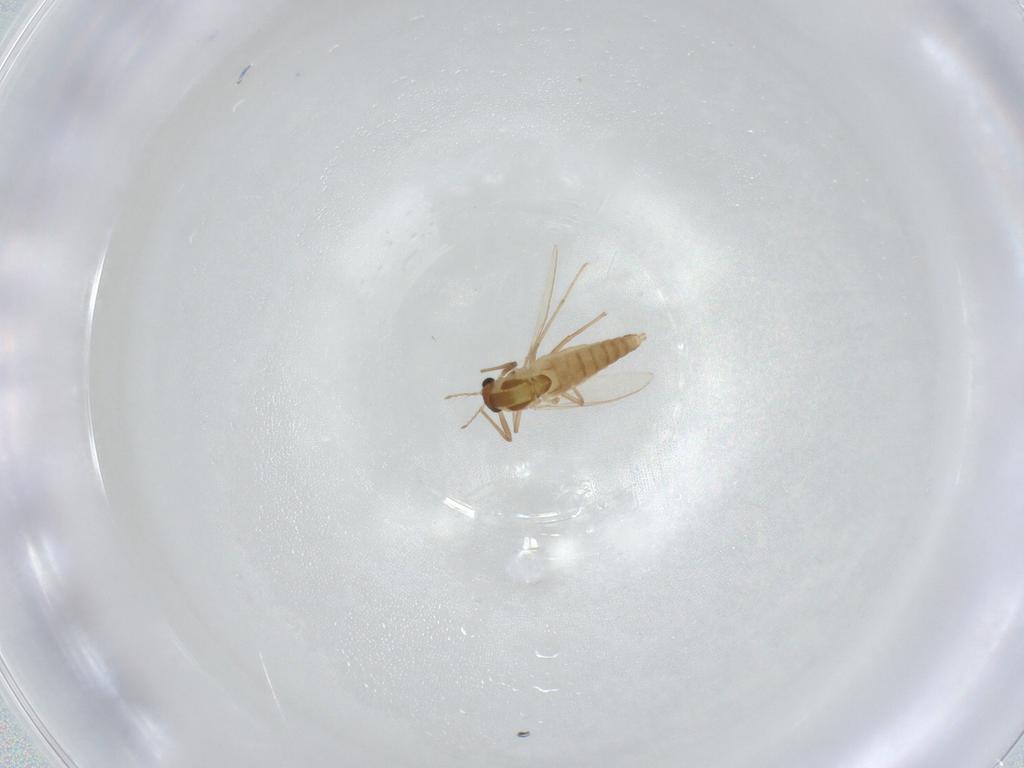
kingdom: Animalia
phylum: Arthropoda
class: Insecta
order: Diptera
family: Chironomidae
